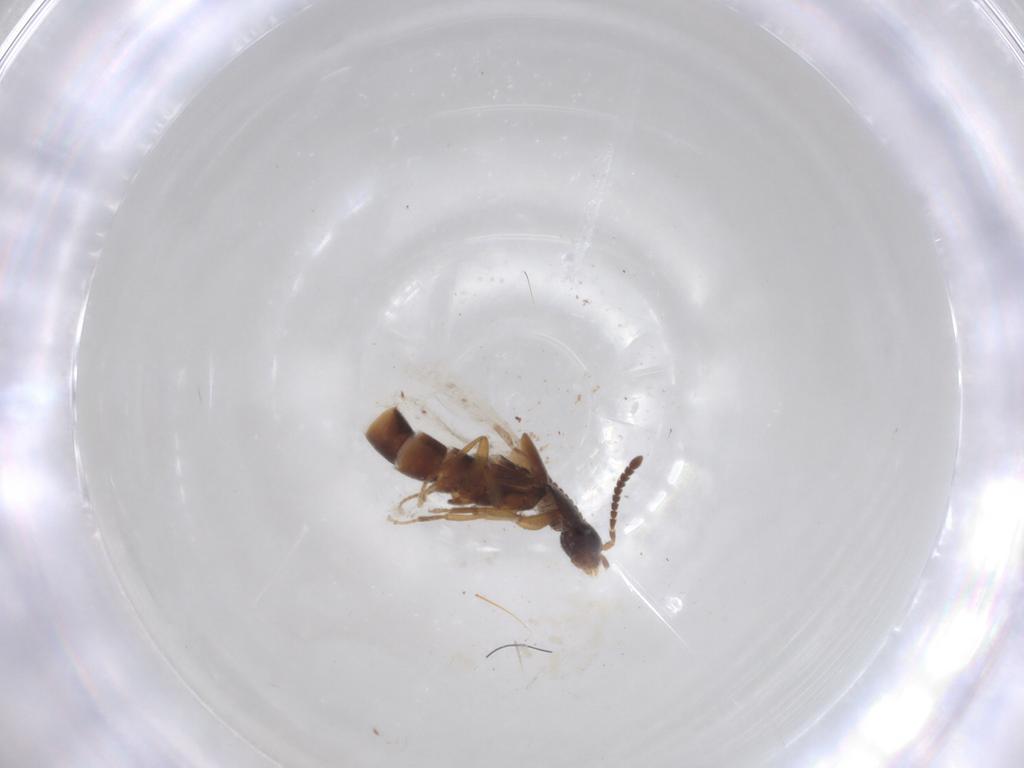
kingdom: Animalia
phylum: Arthropoda
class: Insecta
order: Coleoptera
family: Staphylinidae
